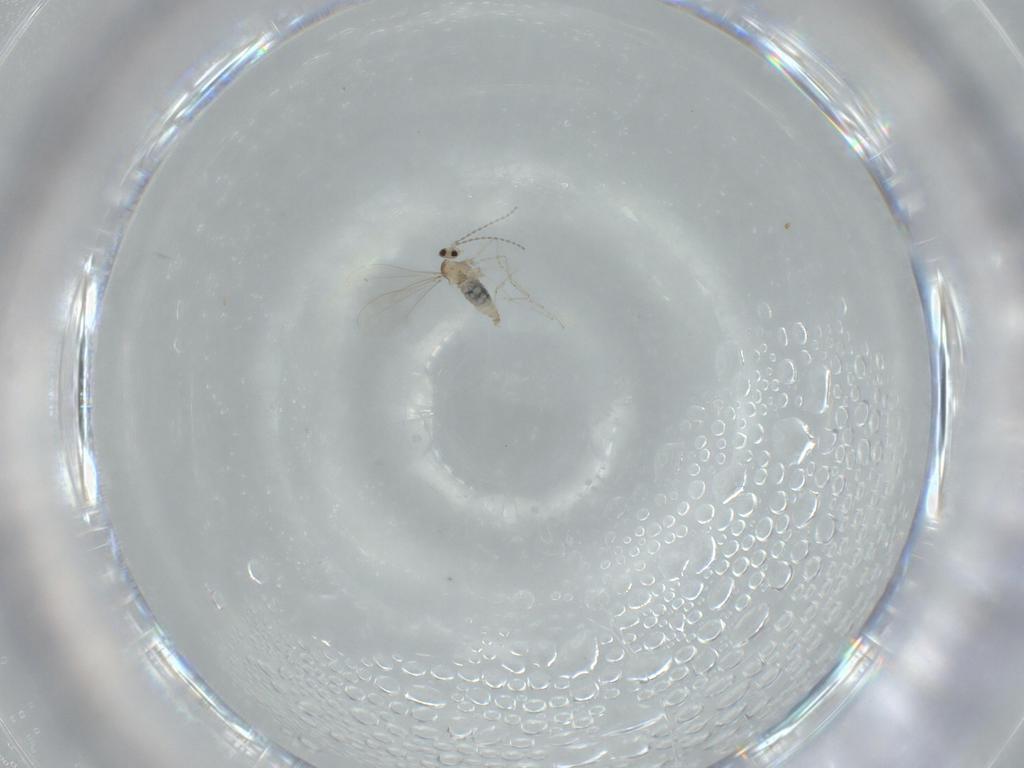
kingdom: Animalia
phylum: Arthropoda
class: Insecta
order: Diptera
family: Cecidomyiidae
